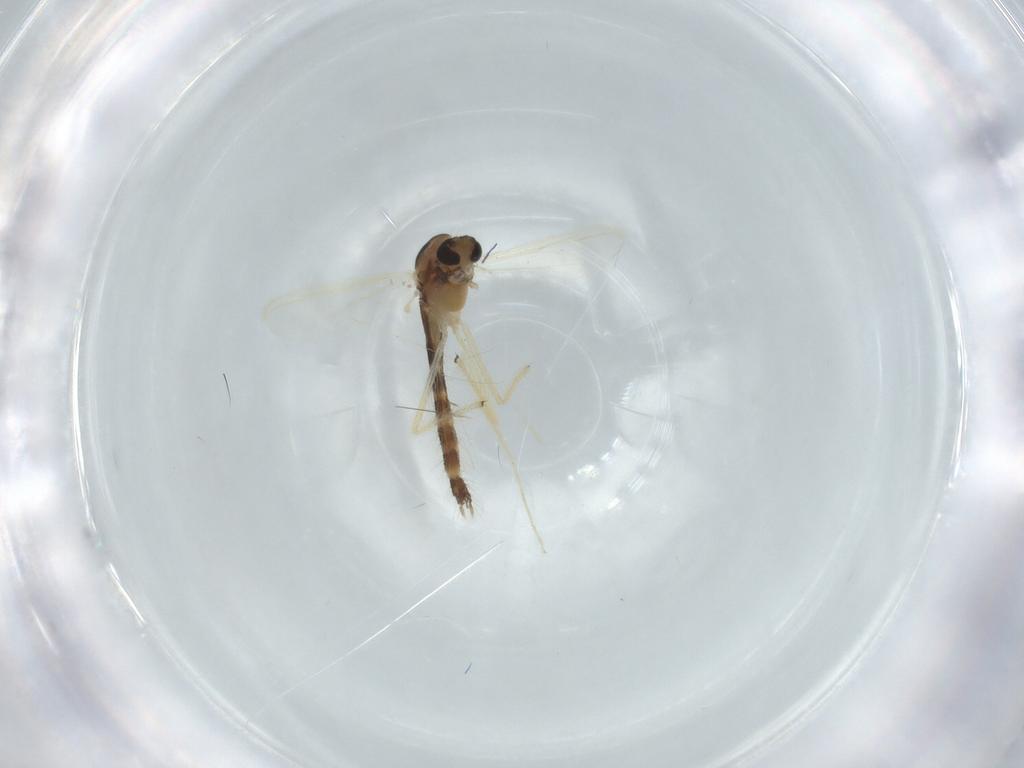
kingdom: Animalia
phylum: Arthropoda
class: Insecta
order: Diptera
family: Chironomidae
